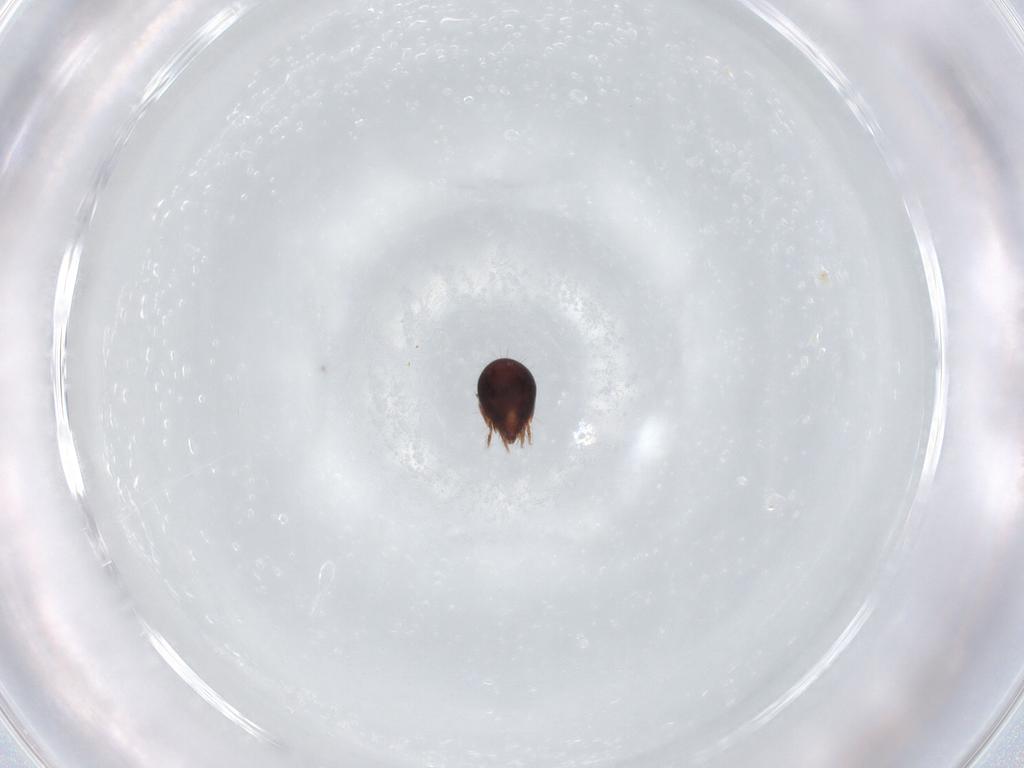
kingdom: Animalia
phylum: Arthropoda
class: Arachnida
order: Sarcoptiformes
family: Humerobatidae
